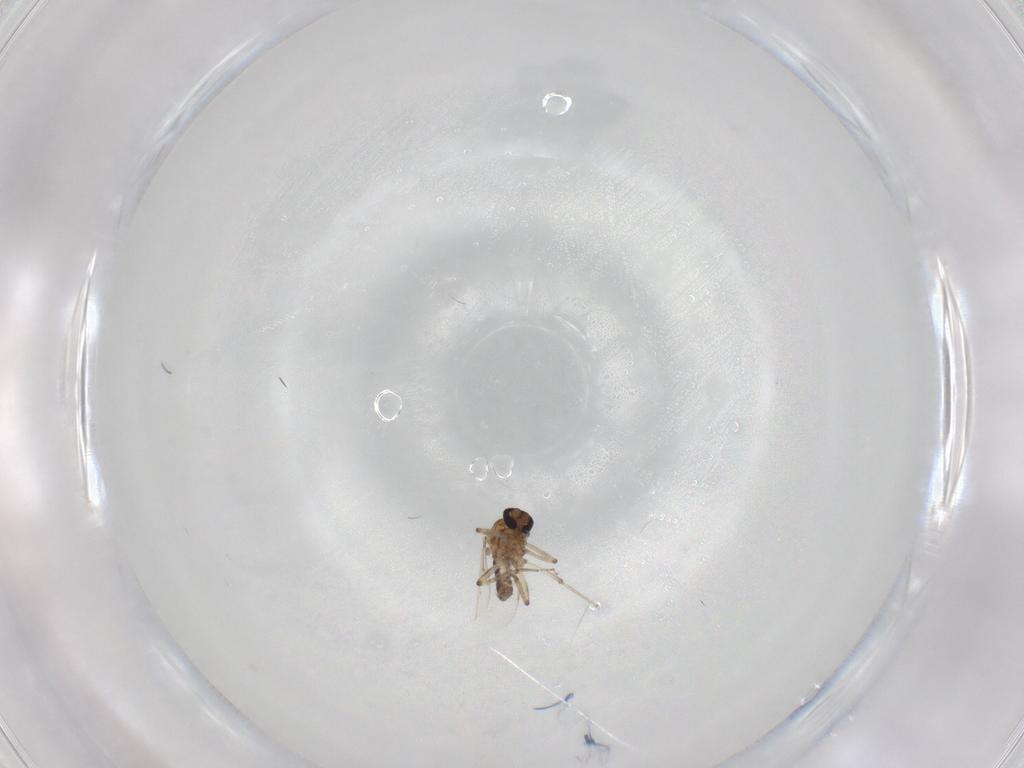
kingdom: Animalia
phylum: Arthropoda
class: Insecta
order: Diptera
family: Ceratopogonidae
